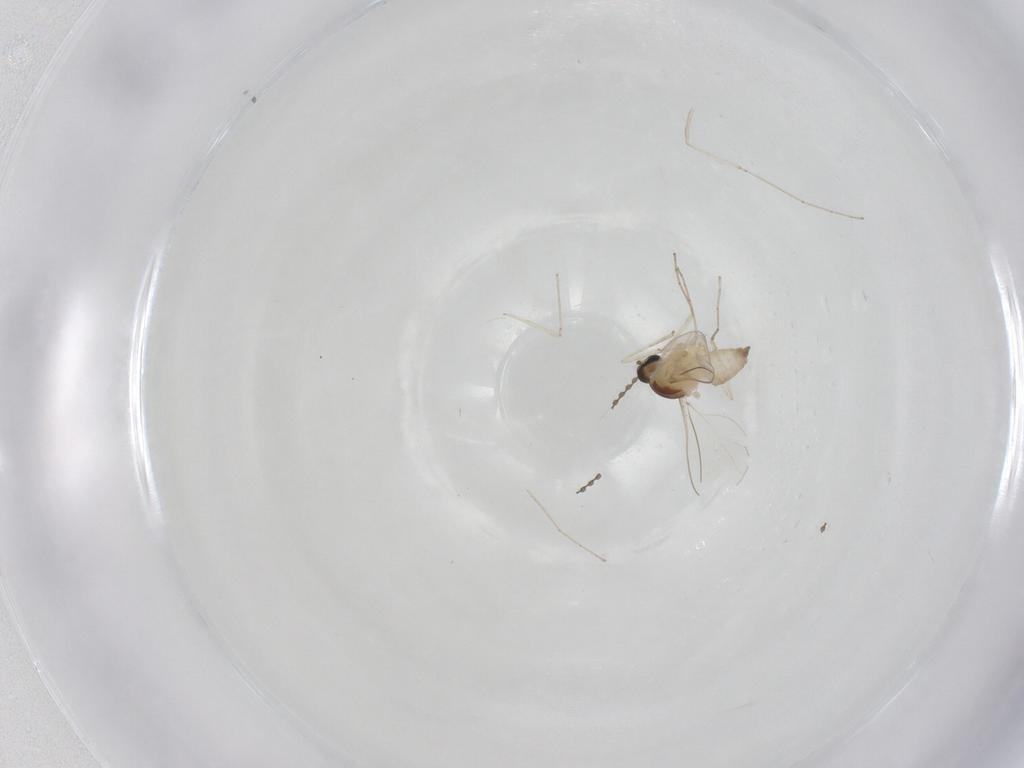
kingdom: Animalia
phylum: Arthropoda
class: Insecta
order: Diptera
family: Cecidomyiidae
